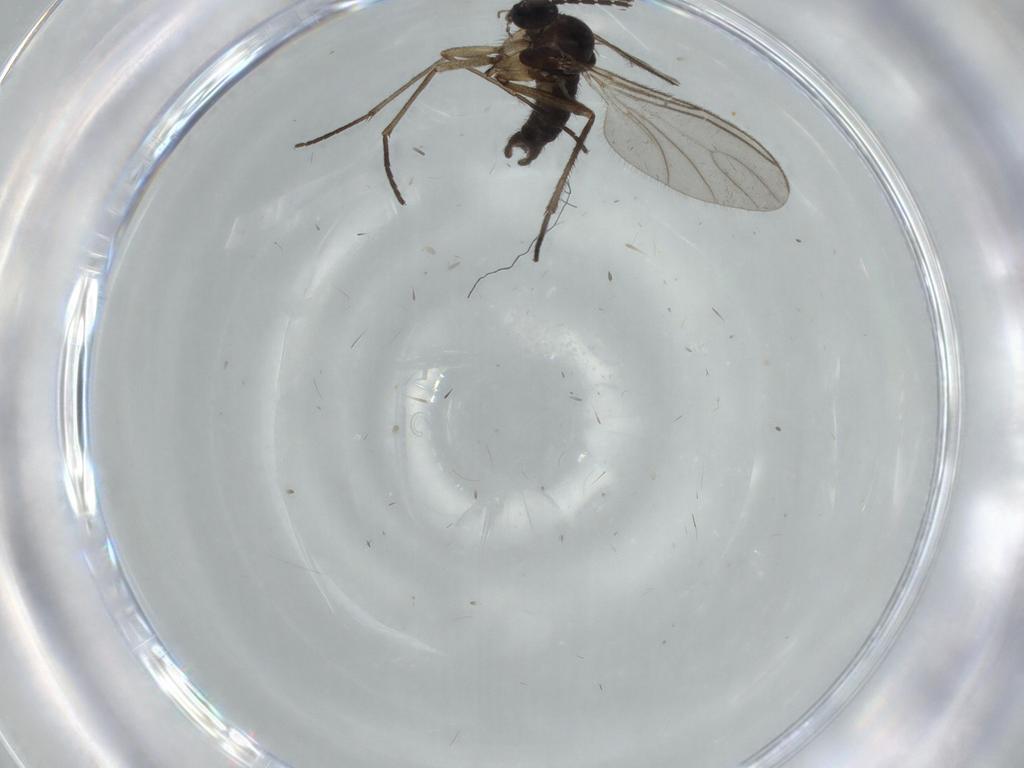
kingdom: Animalia
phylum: Arthropoda
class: Insecta
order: Diptera
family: Sciaridae
